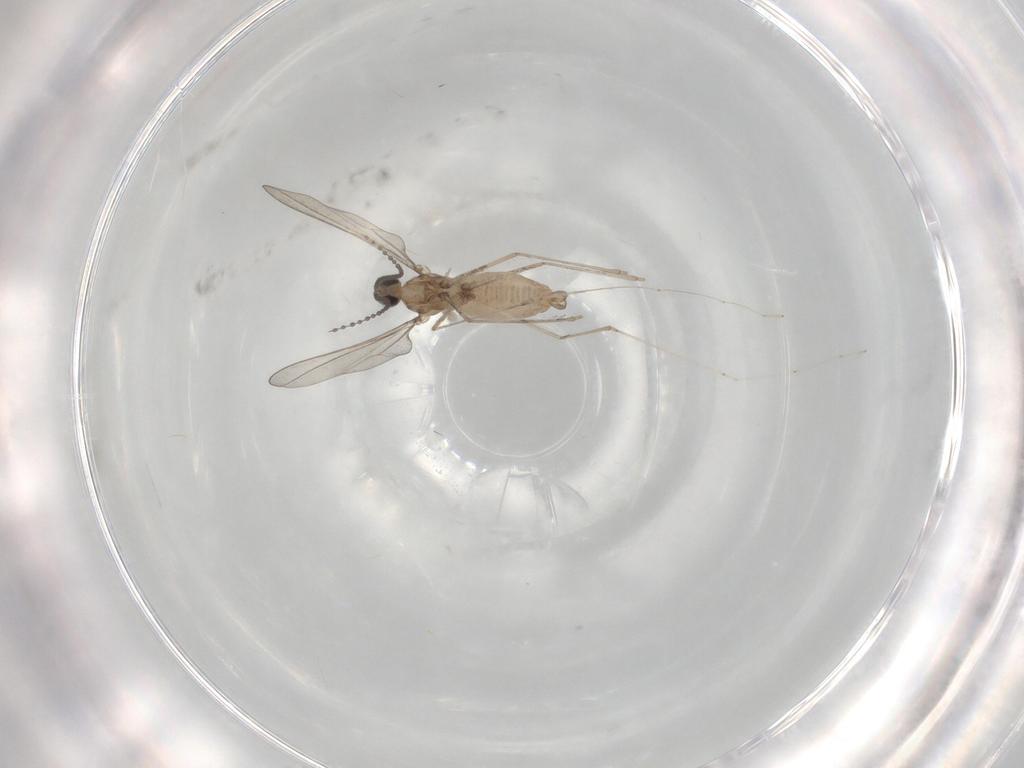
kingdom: Animalia
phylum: Arthropoda
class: Insecta
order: Diptera
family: Cecidomyiidae
